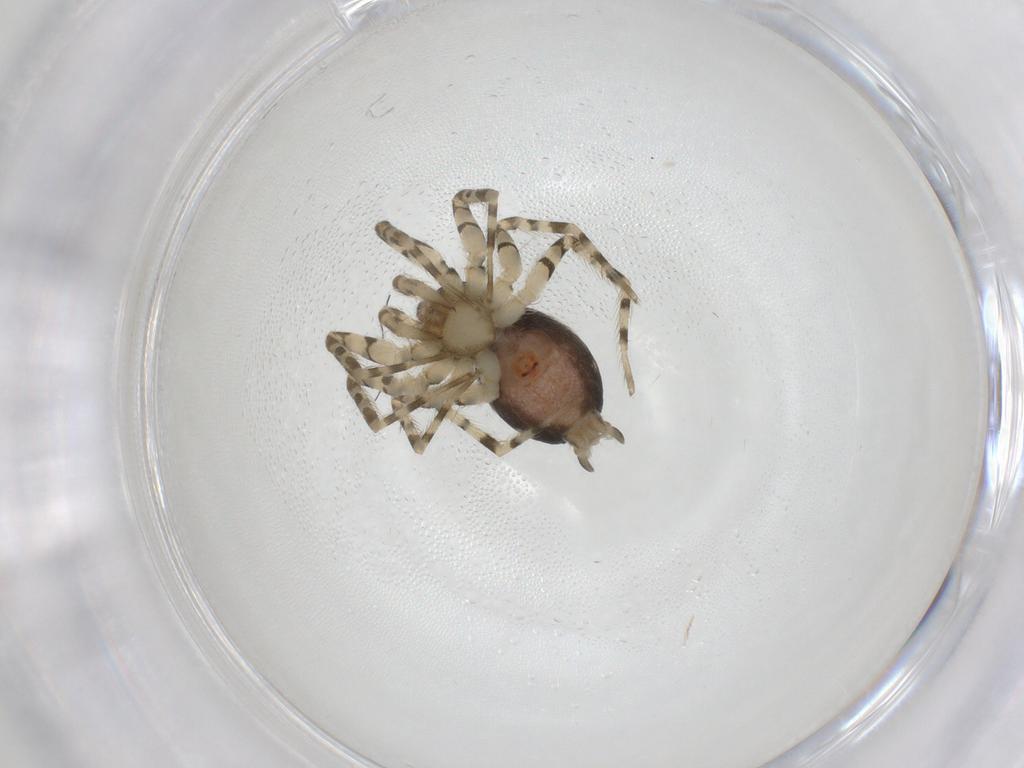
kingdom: Animalia
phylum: Arthropoda
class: Arachnida
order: Araneae
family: Oecobiidae
